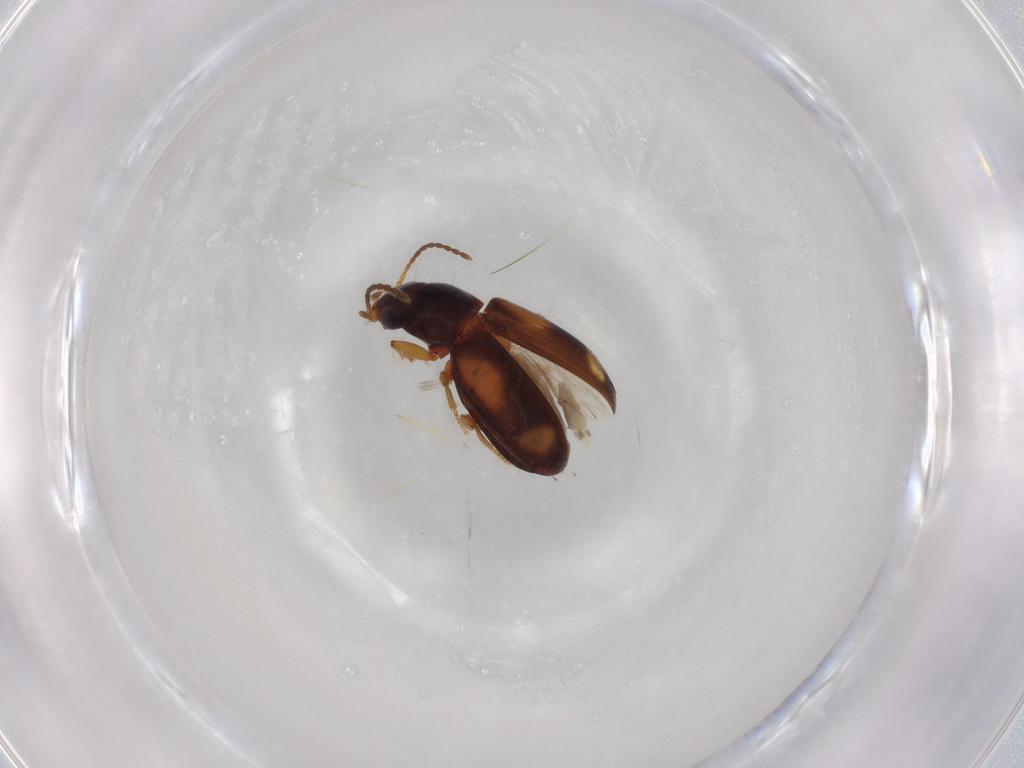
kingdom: Animalia
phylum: Arthropoda
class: Insecta
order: Coleoptera
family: Carabidae
